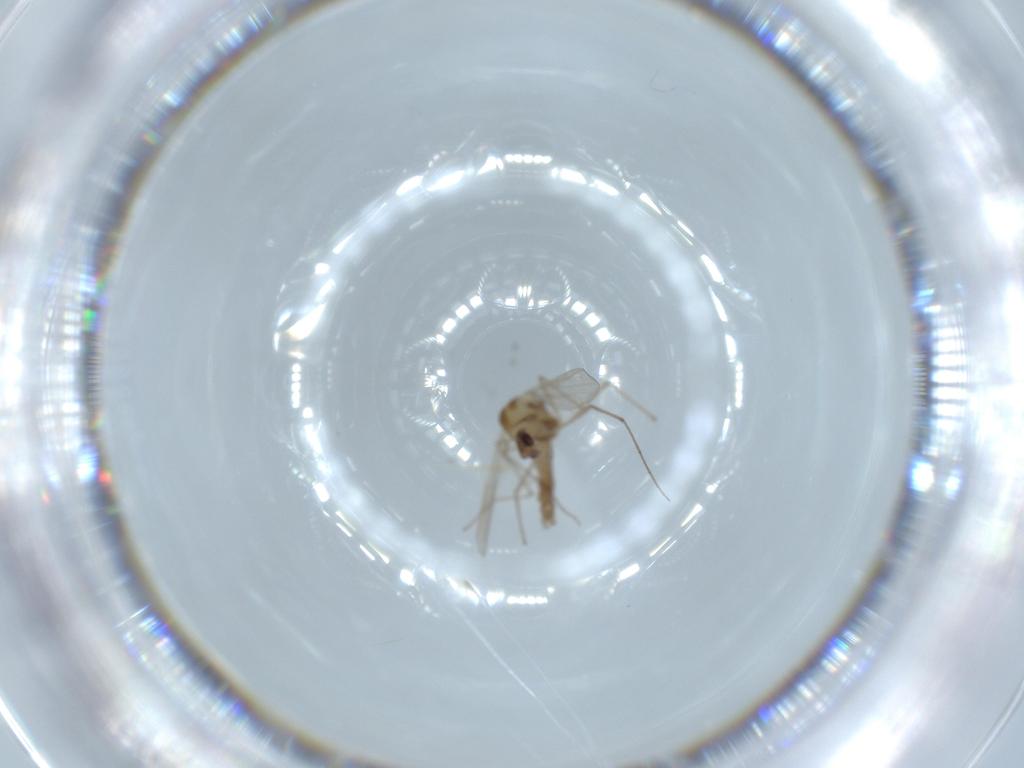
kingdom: Animalia
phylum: Arthropoda
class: Insecta
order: Diptera
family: Chironomidae
